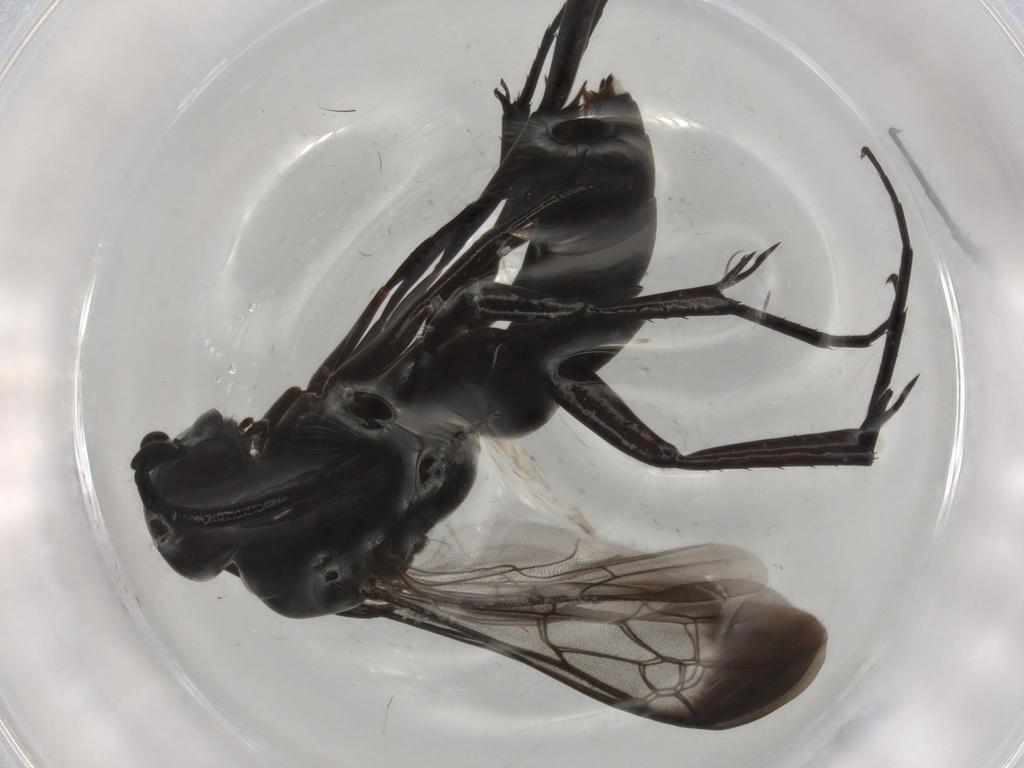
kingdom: Animalia
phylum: Arthropoda
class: Insecta
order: Hymenoptera
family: Pompilidae
